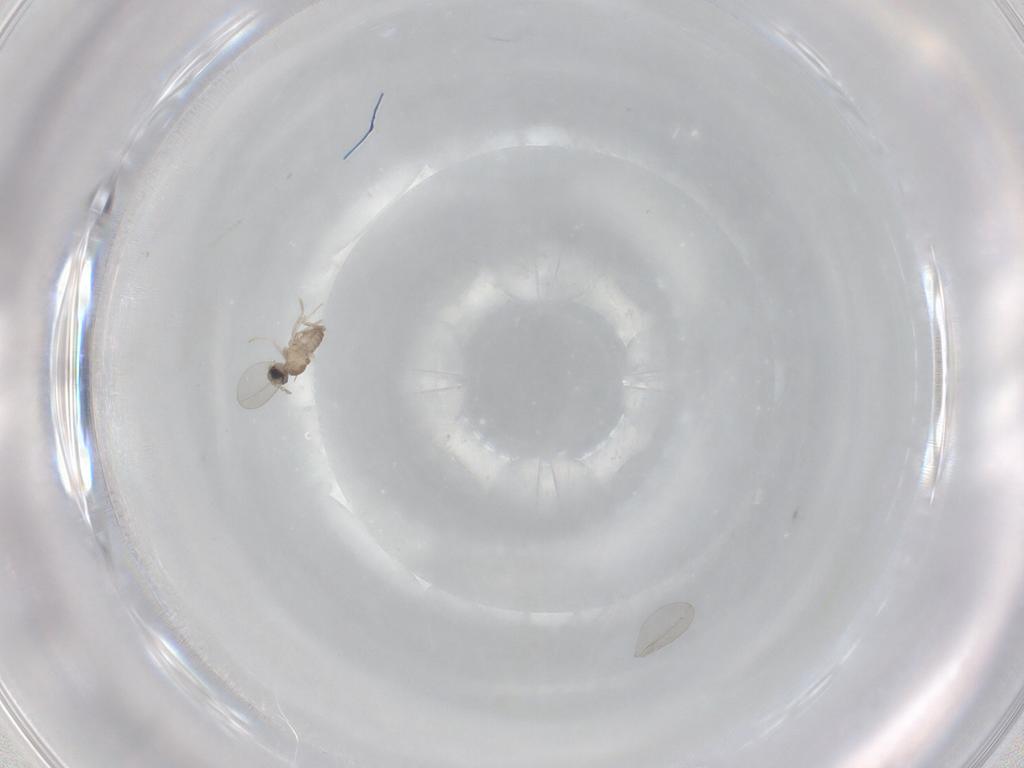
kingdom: Animalia
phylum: Arthropoda
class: Insecta
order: Diptera
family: Cecidomyiidae
